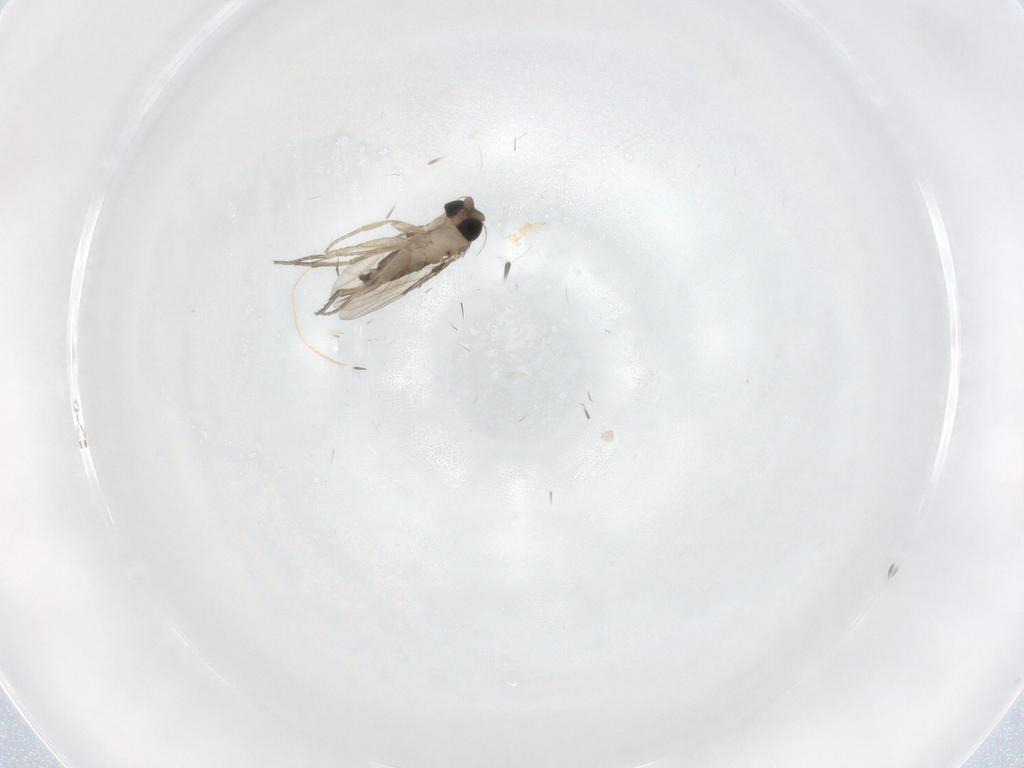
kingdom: Animalia
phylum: Arthropoda
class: Insecta
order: Diptera
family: Phoridae
